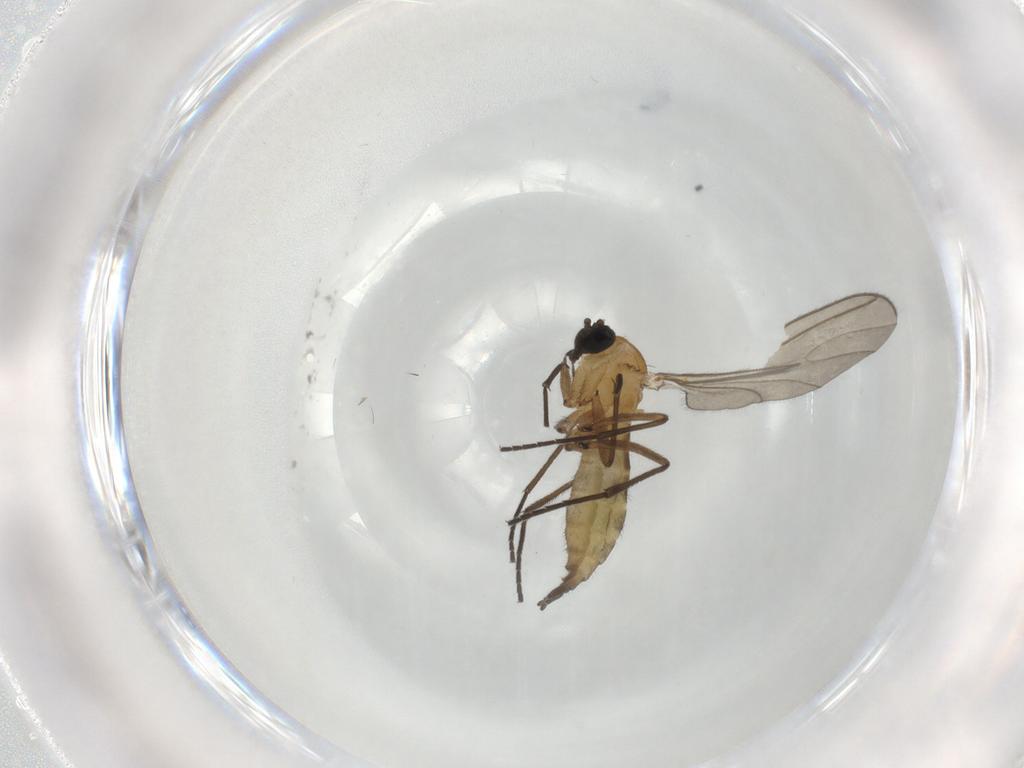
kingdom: Animalia
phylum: Arthropoda
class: Insecta
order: Diptera
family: Sciaridae
